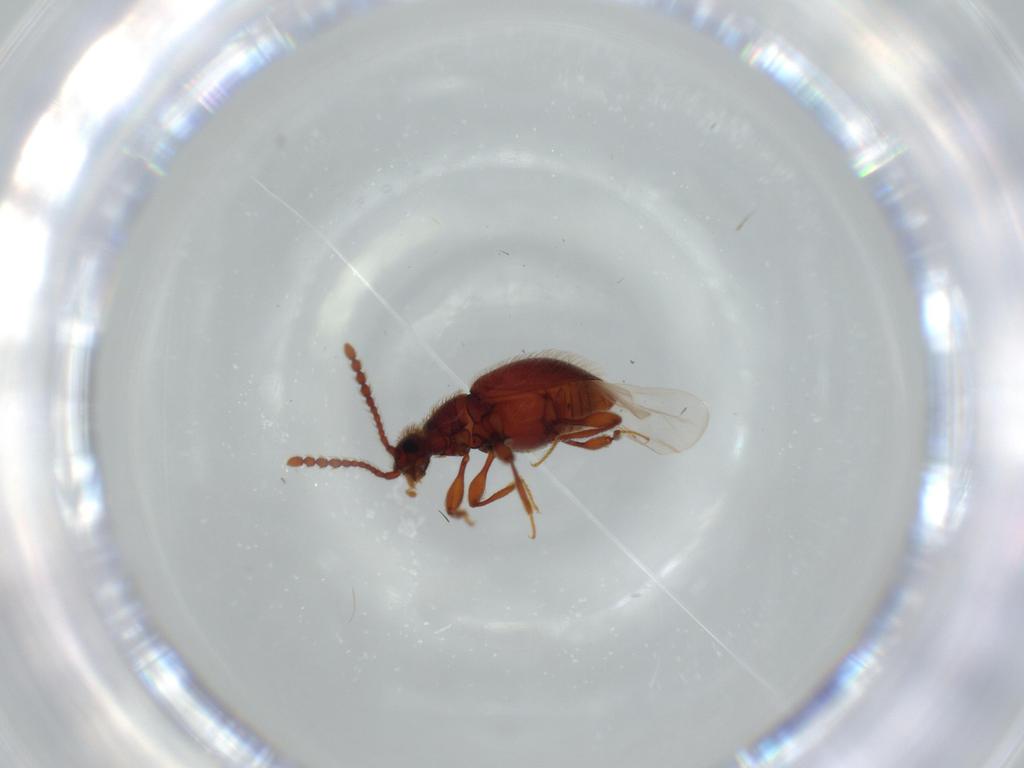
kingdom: Animalia
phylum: Arthropoda
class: Insecta
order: Coleoptera
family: Staphylinidae
